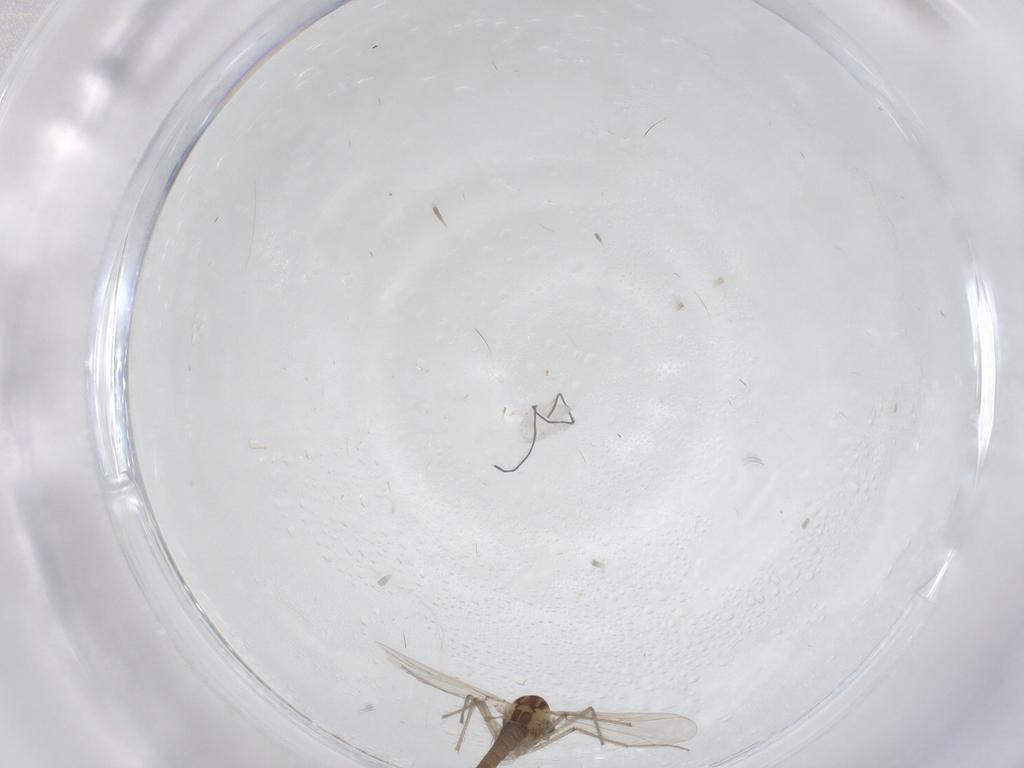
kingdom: Animalia
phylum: Arthropoda
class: Insecta
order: Diptera
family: Chironomidae
